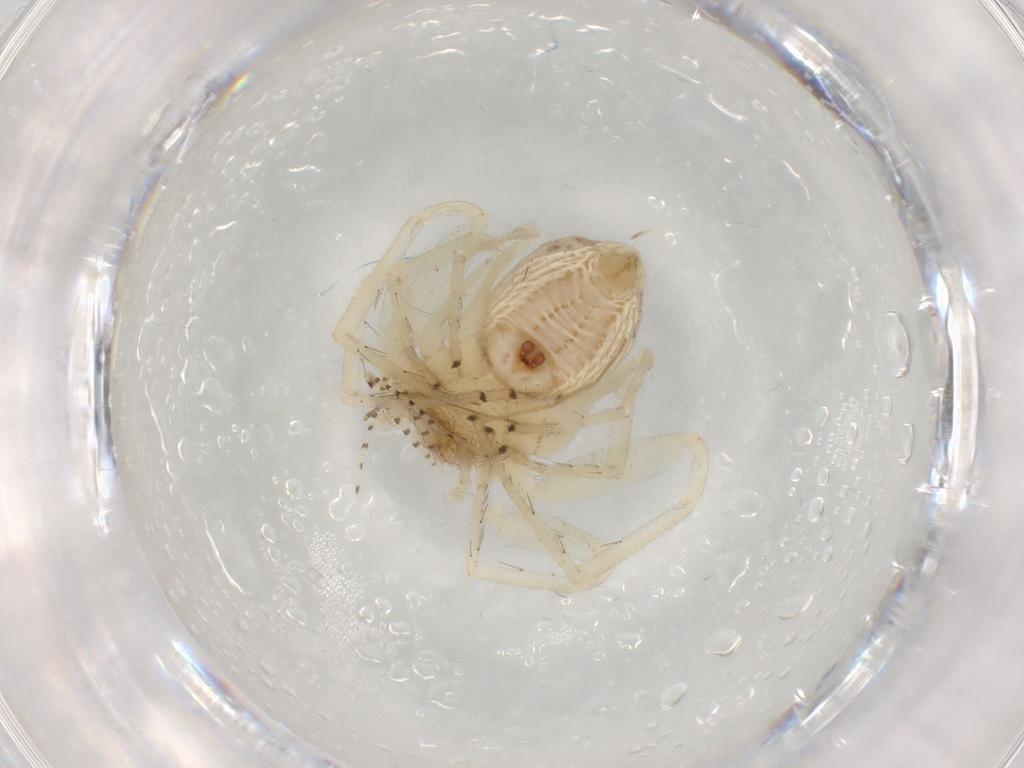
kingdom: Animalia
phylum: Arthropoda
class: Arachnida
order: Araneae
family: Philodromidae
